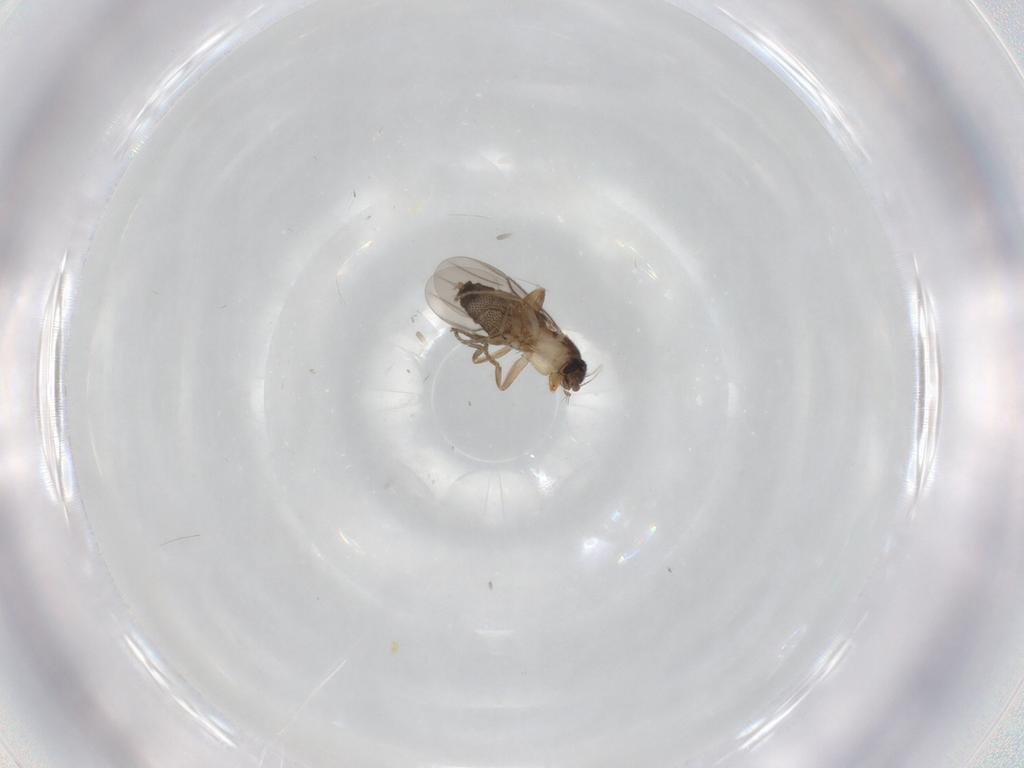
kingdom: Animalia
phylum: Arthropoda
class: Insecta
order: Diptera
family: Phoridae
